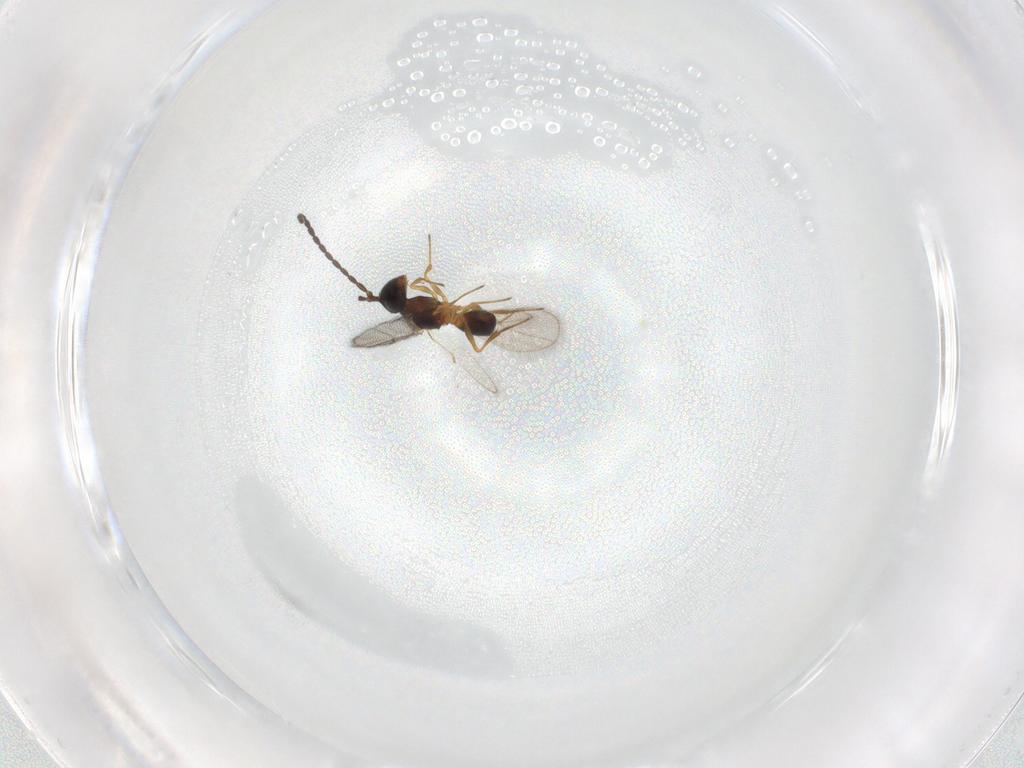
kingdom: Animalia
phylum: Arthropoda
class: Insecta
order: Hymenoptera
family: Figitidae
